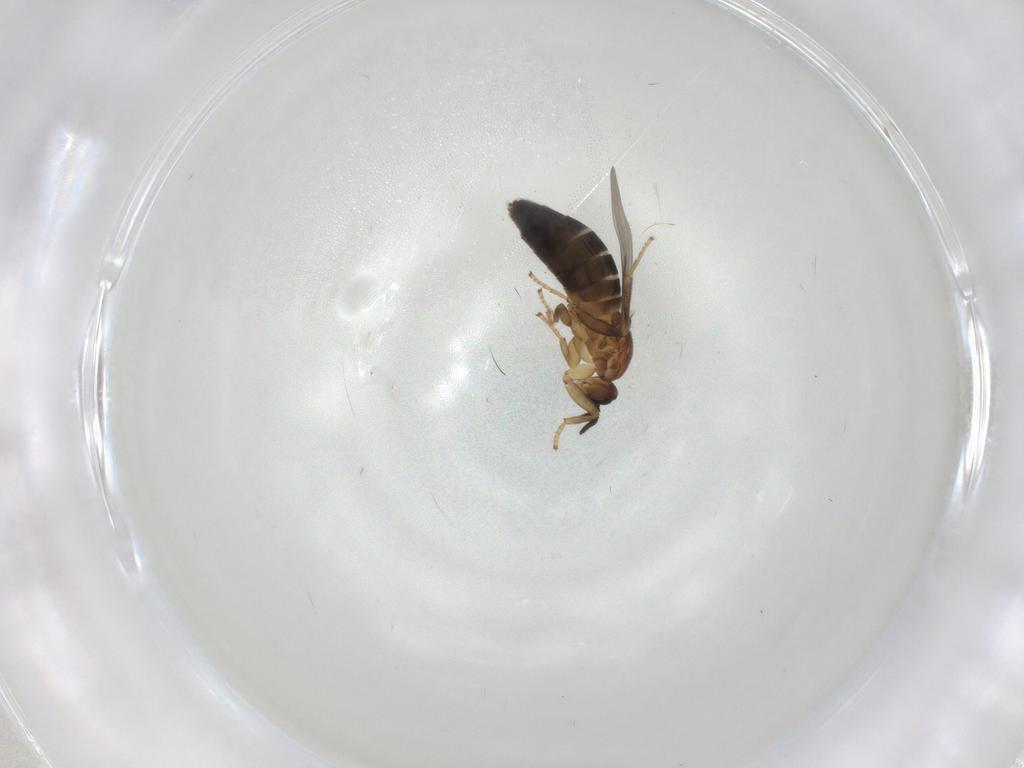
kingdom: Animalia
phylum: Arthropoda
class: Insecta
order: Diptera
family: Scatopsidae
